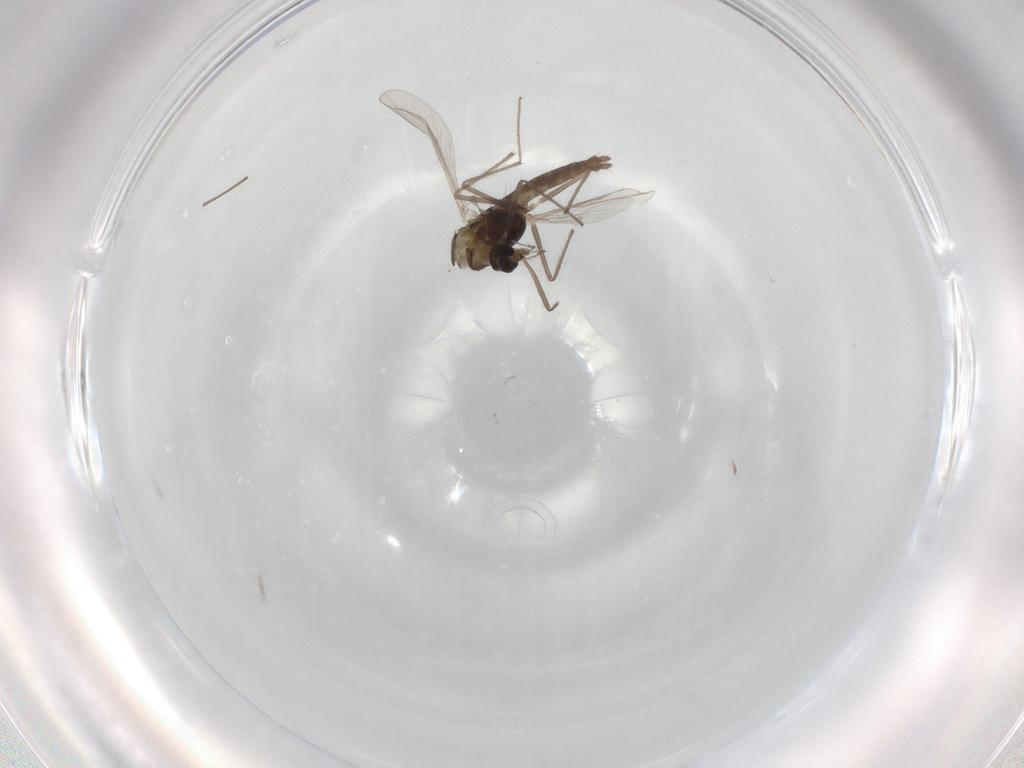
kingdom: Animalia
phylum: Arthropoda
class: Insecta
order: Diptera
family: Chironomidae
